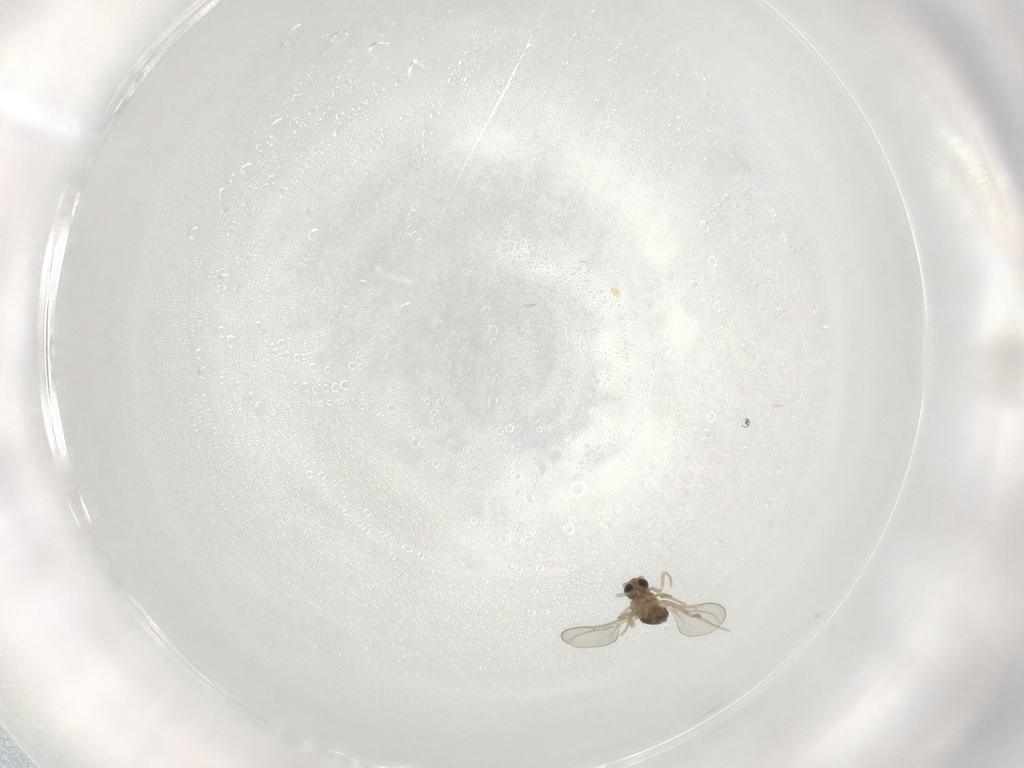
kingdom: Animalia
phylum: Arthropoda
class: Insecta
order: Diptera
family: Cecidomyiidae
